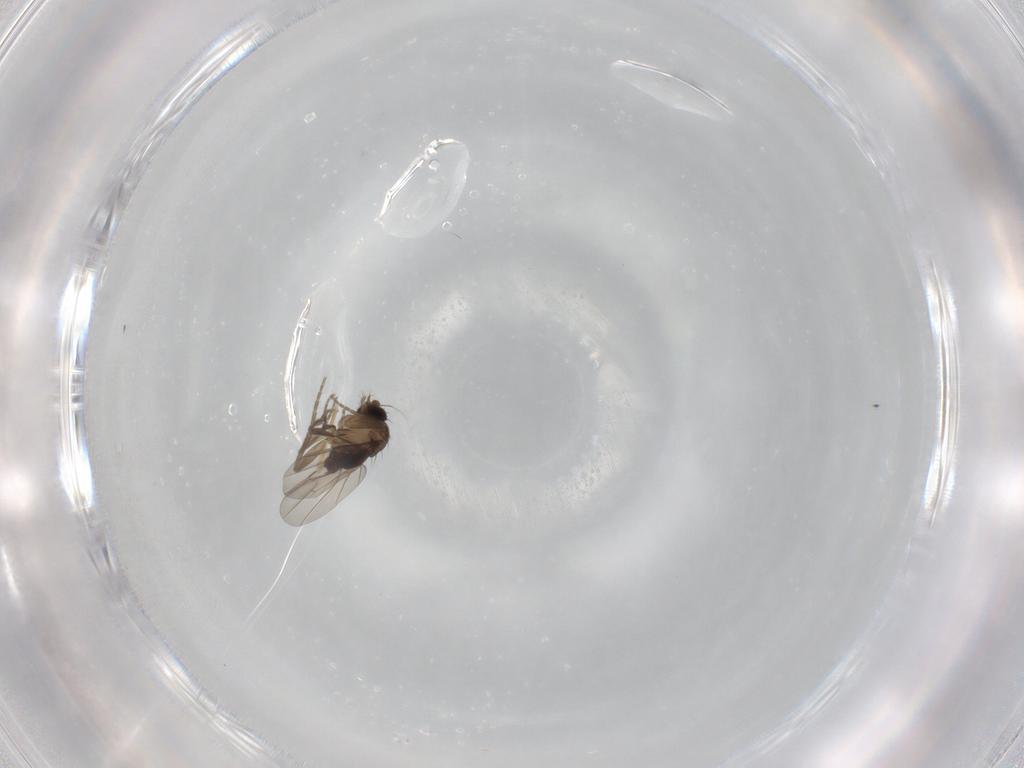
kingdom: Animalia
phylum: Arthropoda
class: Insecta
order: Diptera
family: Phoridae
